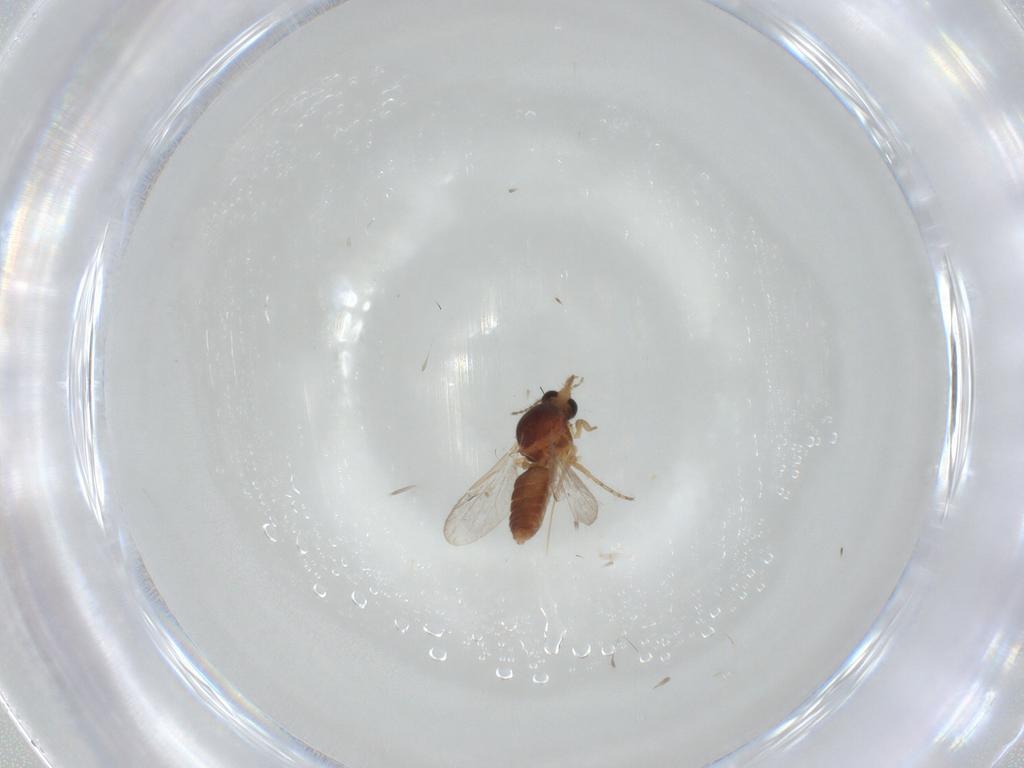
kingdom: Animalia
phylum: Arthropoda
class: Insecta
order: Diptera
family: Ceratopogonidae
